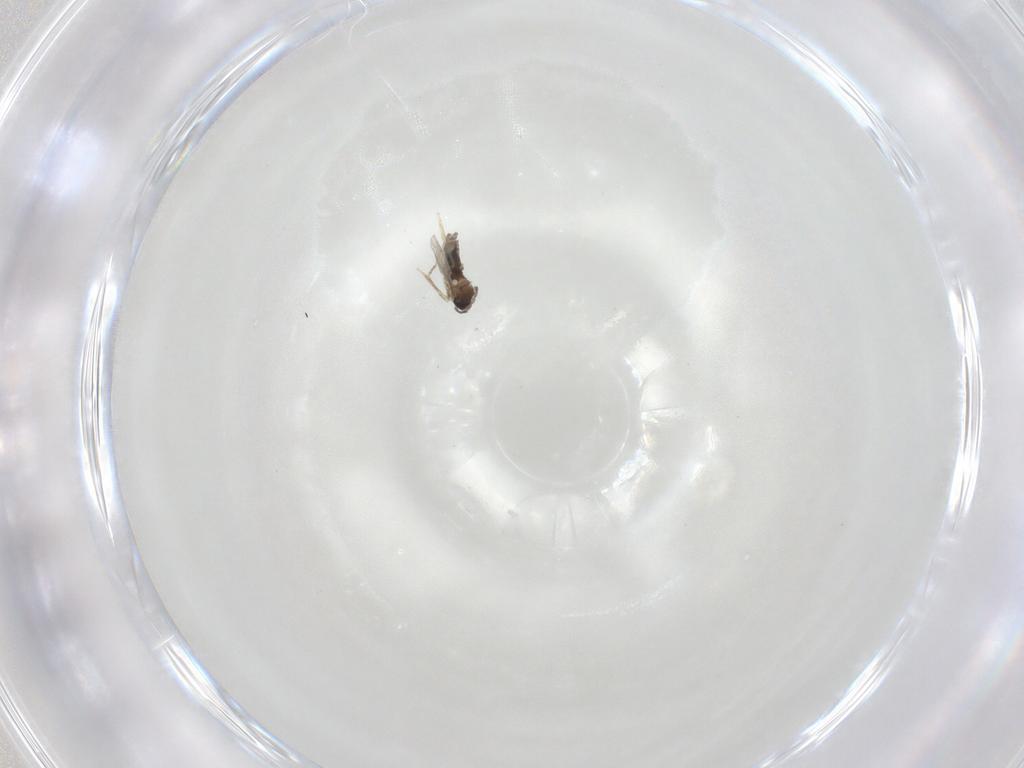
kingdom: Animalia
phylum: Arthropoda
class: Insecta
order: Diptera
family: Cecidomyiidae
